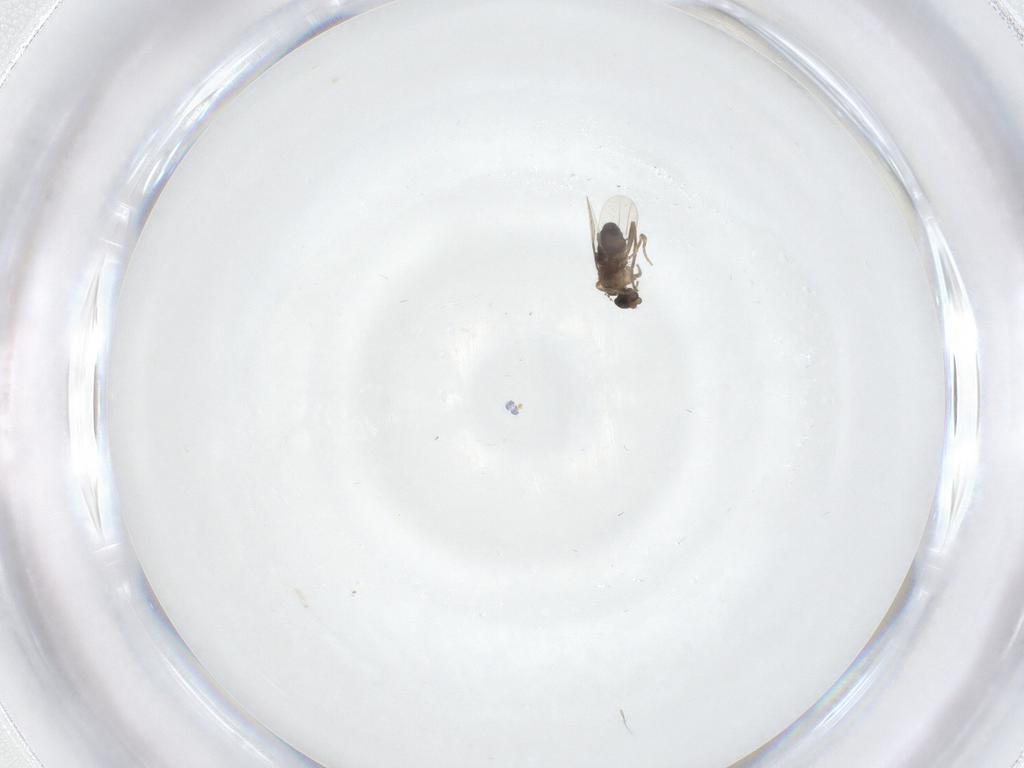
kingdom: Animalia
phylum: Arthropoda
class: Insecta
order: Diptera
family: Phoridae
